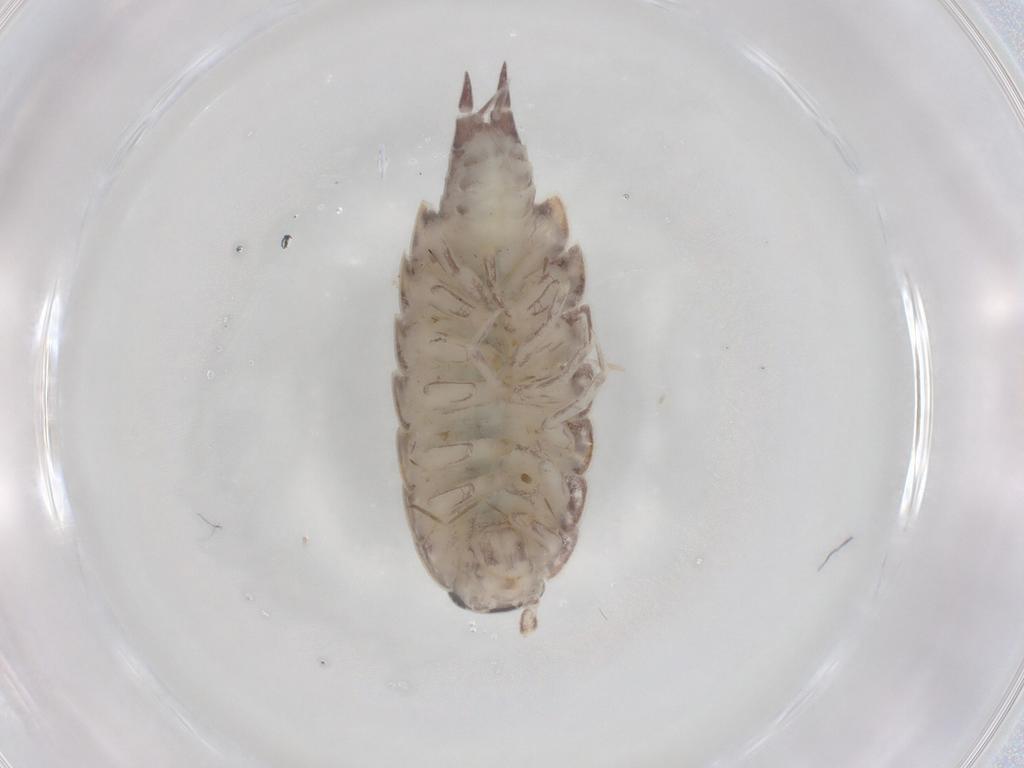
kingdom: Animalia
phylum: Arthropoda
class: Insecta
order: Diptera
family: Cecidomyiidae
